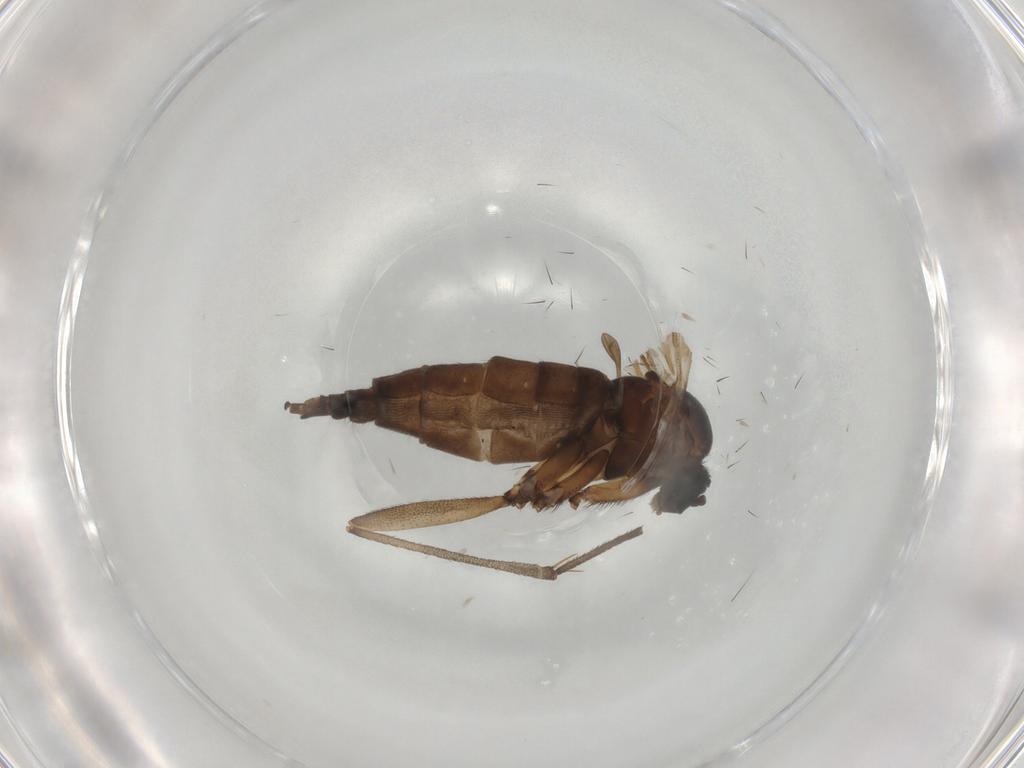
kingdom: Animalia
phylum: Arthropoda
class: Insecta
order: Diptera
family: Sciaridae
